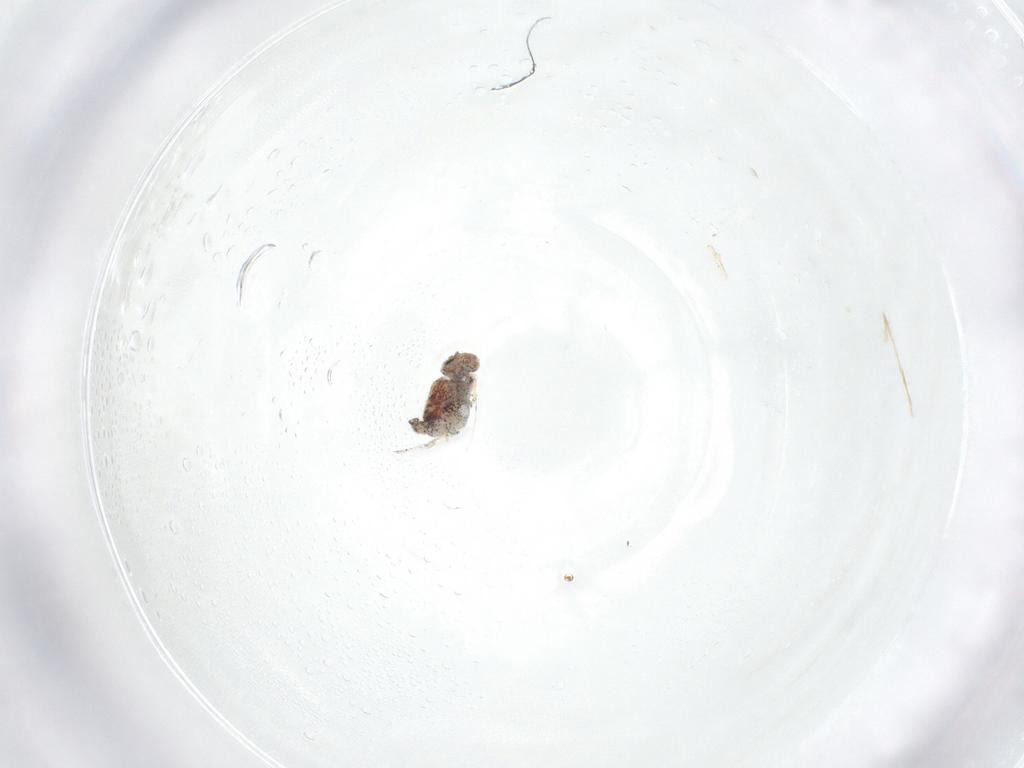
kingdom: Animalia
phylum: Arthropoda
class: Collembola
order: Symphypleona
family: Bourletiellidae
